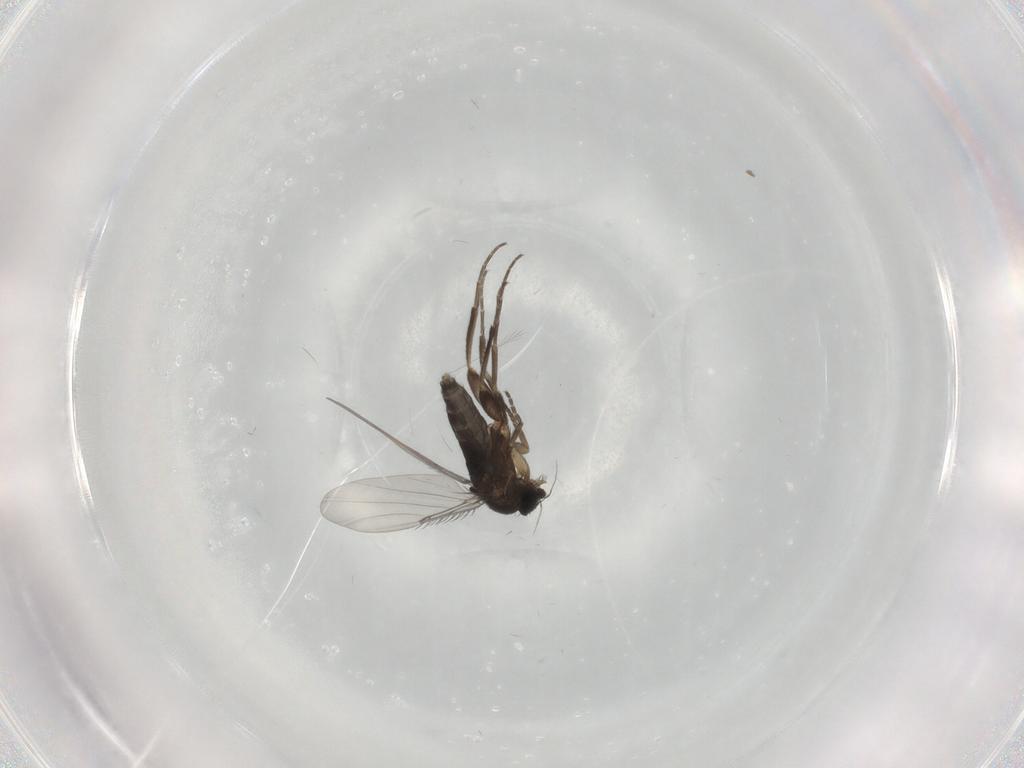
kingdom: Animalia
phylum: Arthropoda
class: Insecta
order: Diptera
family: Phoridae
